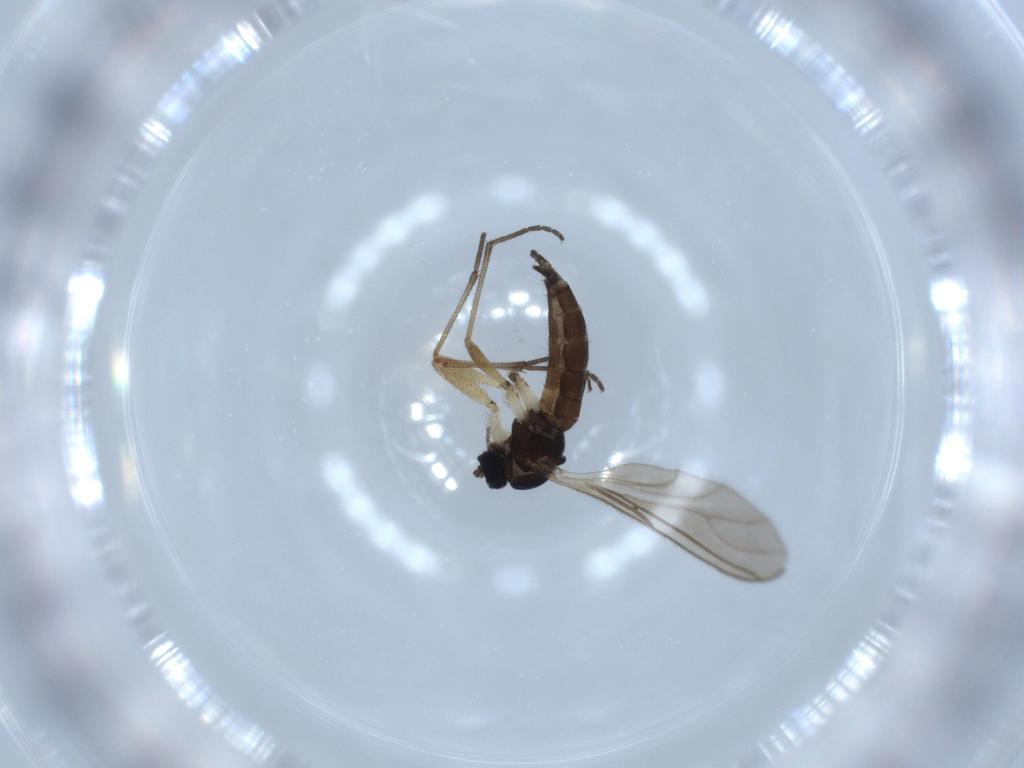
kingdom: Animalia
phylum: Arthropoda
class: Insecta
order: Diptera
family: Sciaridae
